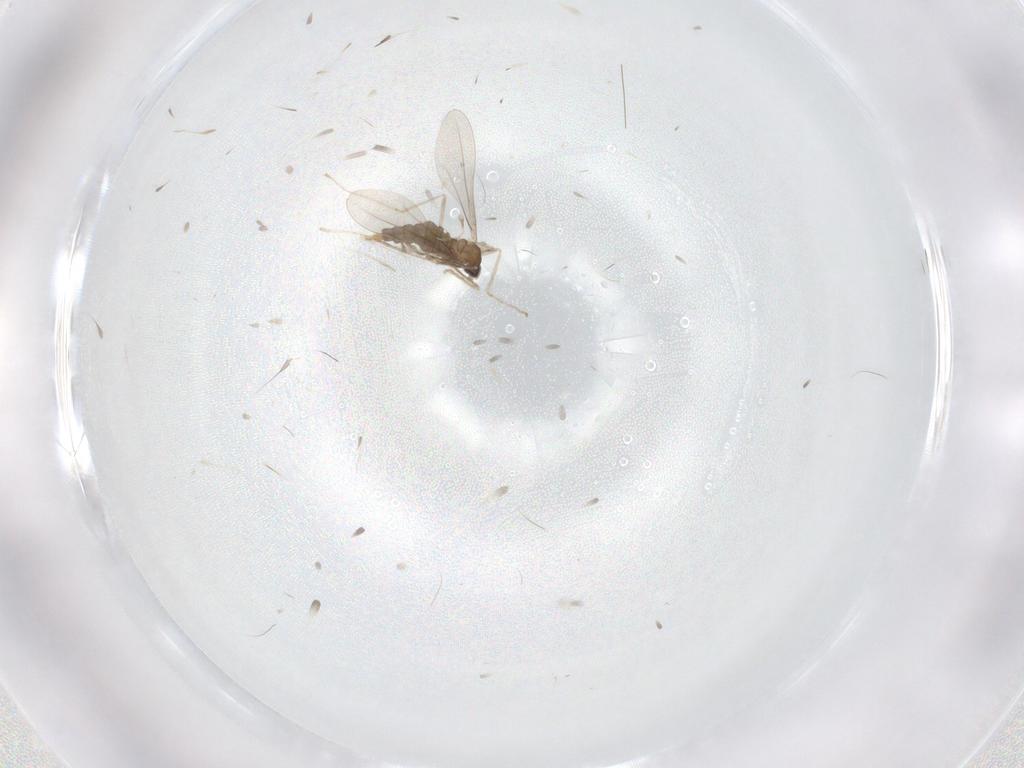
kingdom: Animalia
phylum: Arthropoda
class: Insecta
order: Diptera
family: Cecidomyiidae
